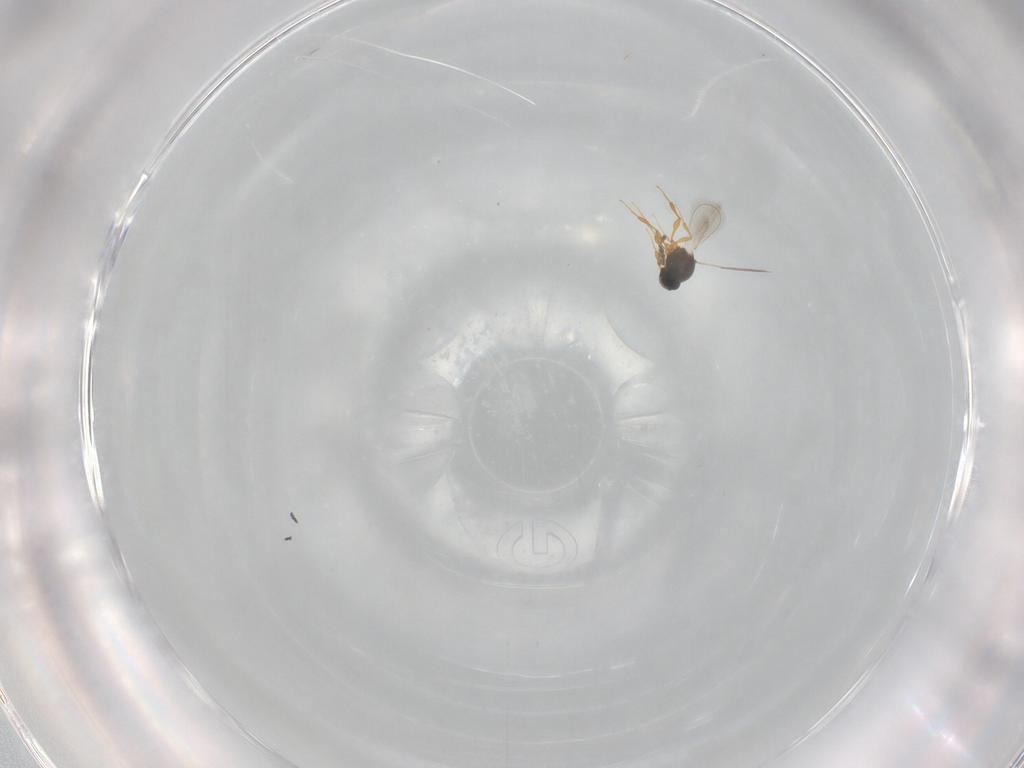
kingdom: Animalia
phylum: Arthropoda
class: Insecta
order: Hymenoptera
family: Platygastridae
